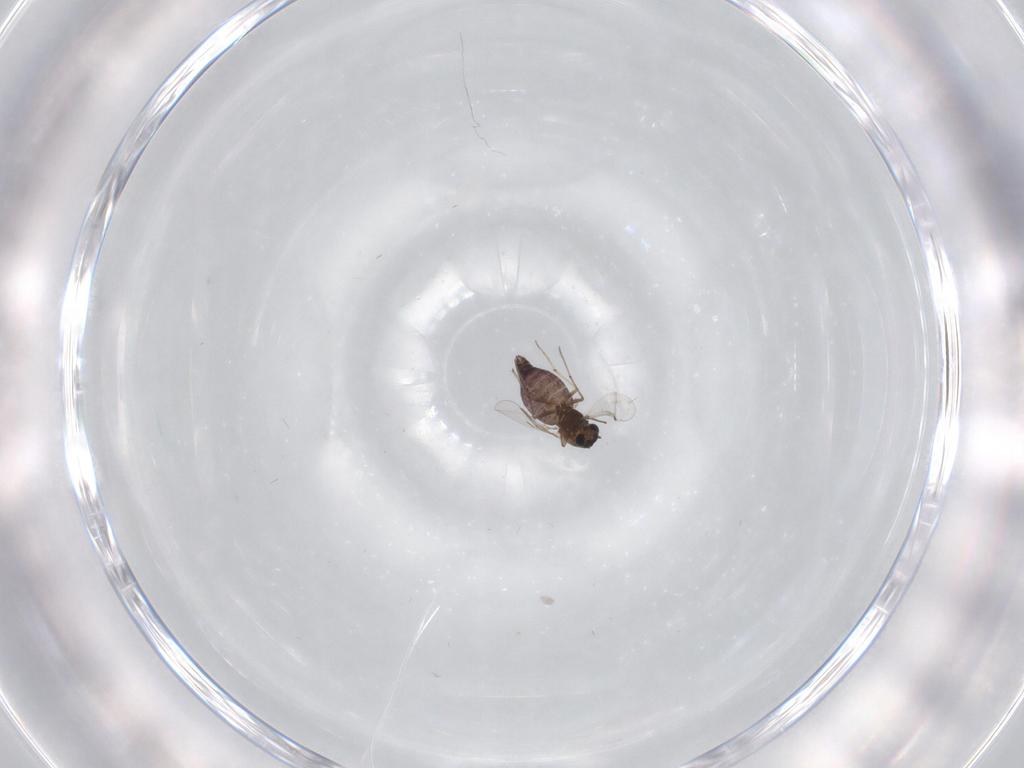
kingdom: Animalia
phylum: Arthropoda
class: Insecta
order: Diptera
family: Chironomidae
